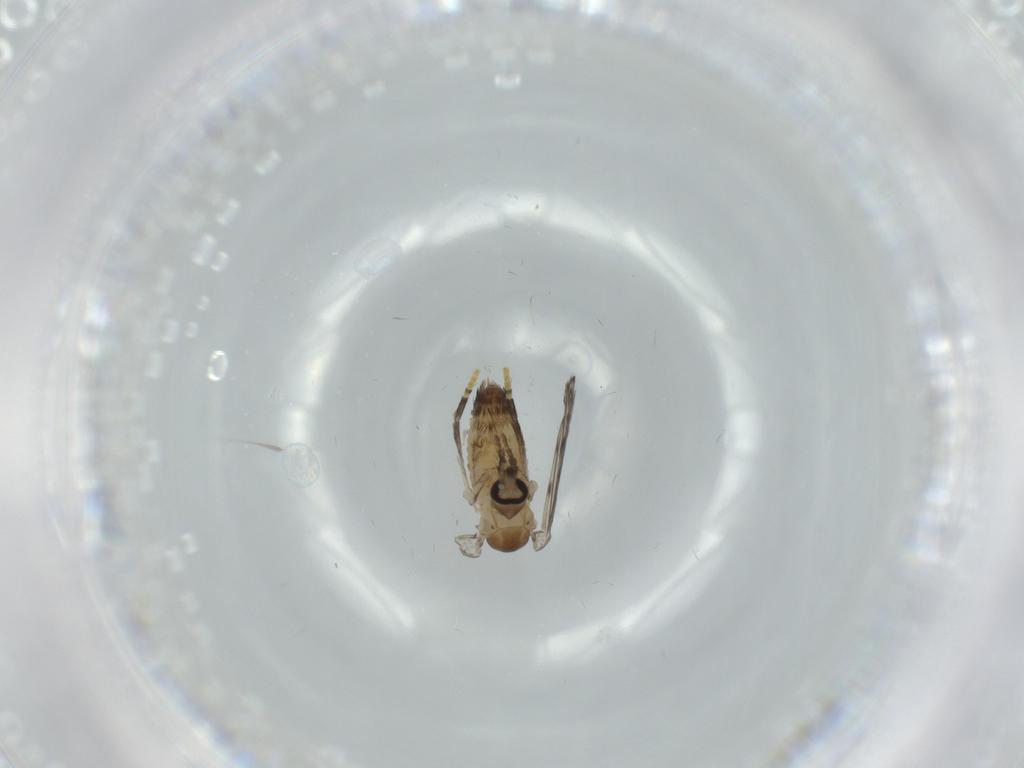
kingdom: Animalia
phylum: Arthropoda
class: Insecta
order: Diptera
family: Psychodidae
